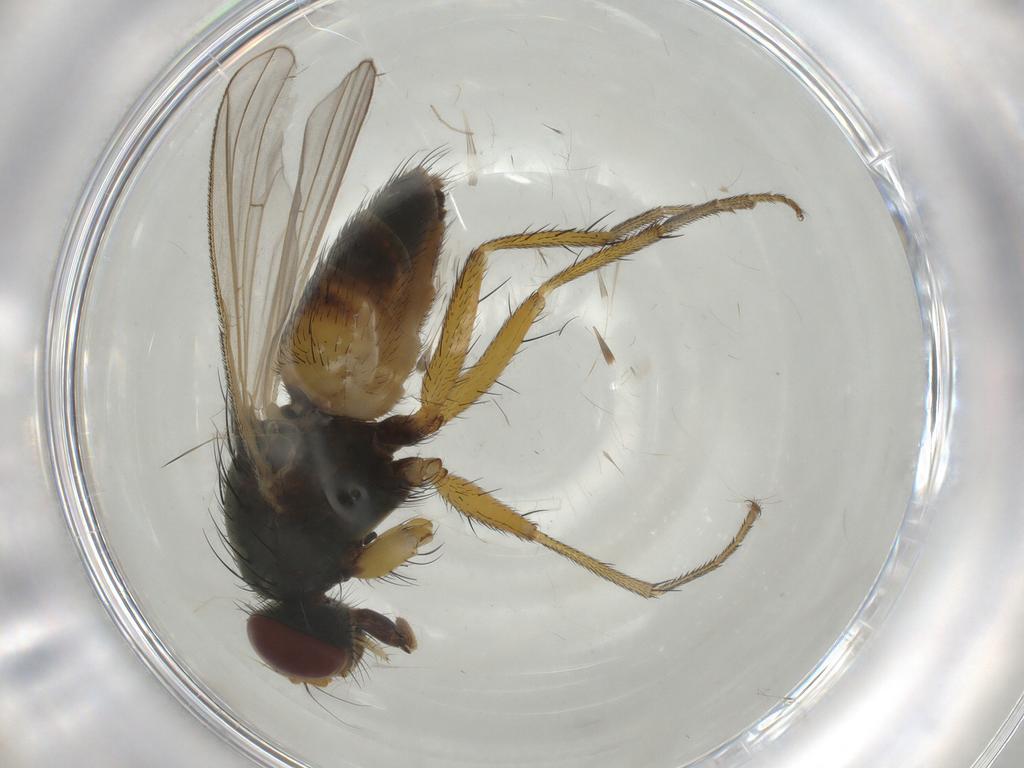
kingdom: Animalia
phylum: Arthropoda
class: Insecta
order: Diptera
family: Muscidae
